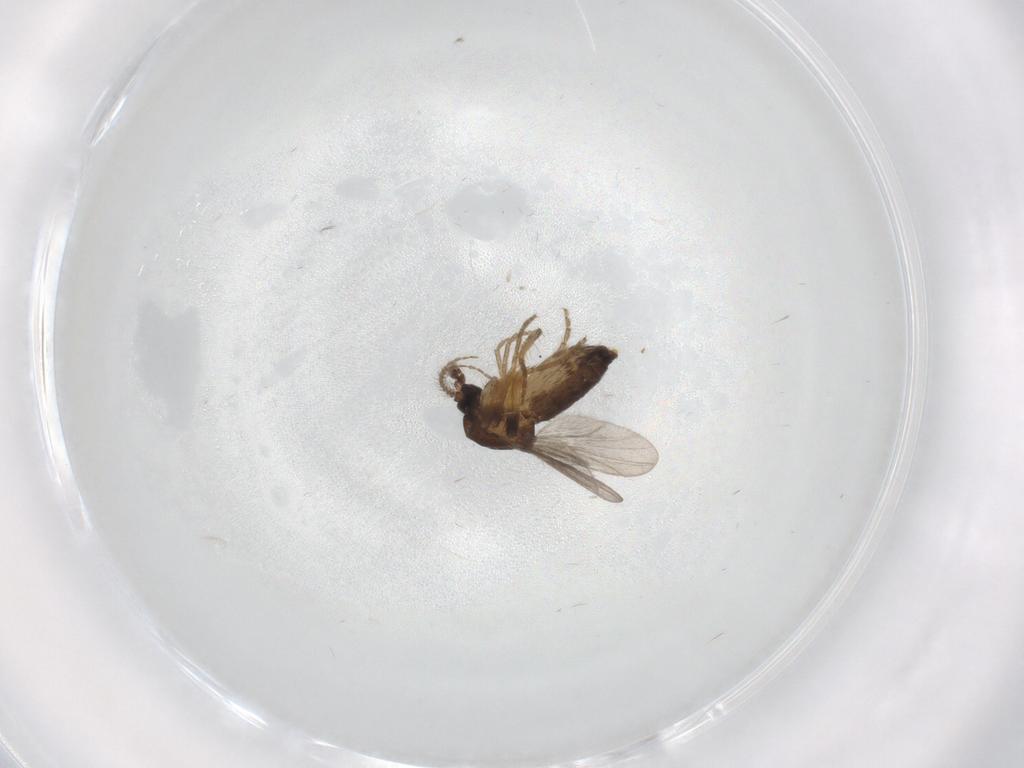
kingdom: Animalia
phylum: Arthropoda
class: Insecta
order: Diptera
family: Ceratopogonidae
